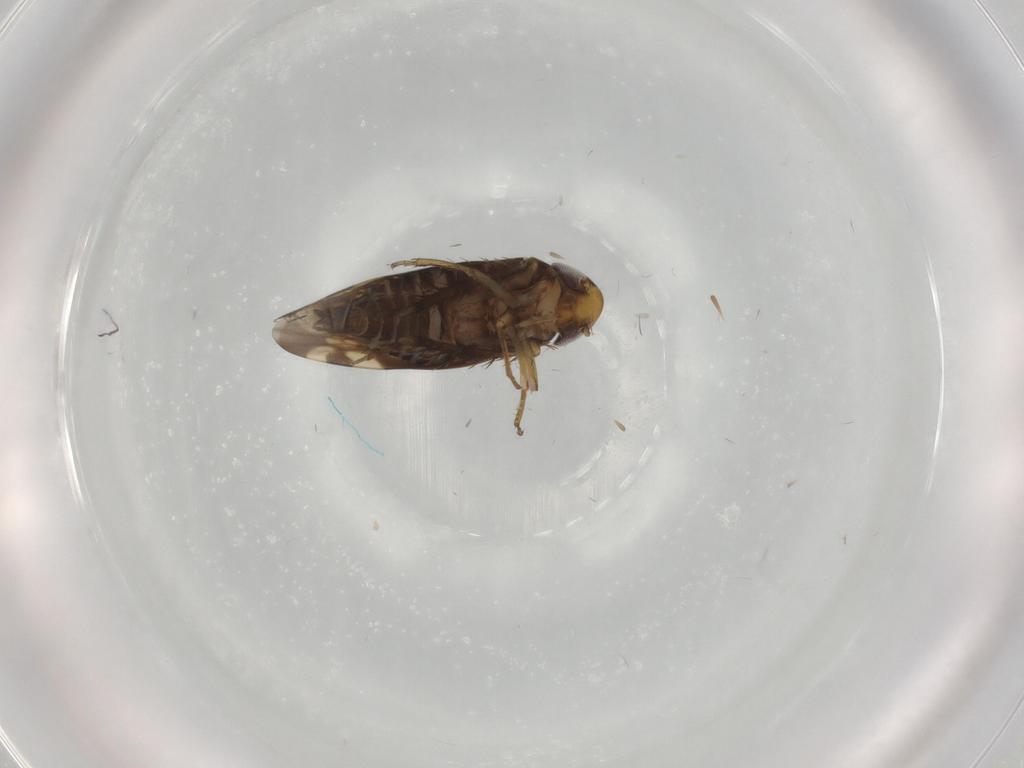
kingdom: Animalia
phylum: Arthropoda
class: Insecta
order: Hemiptera
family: Cicadellidae
